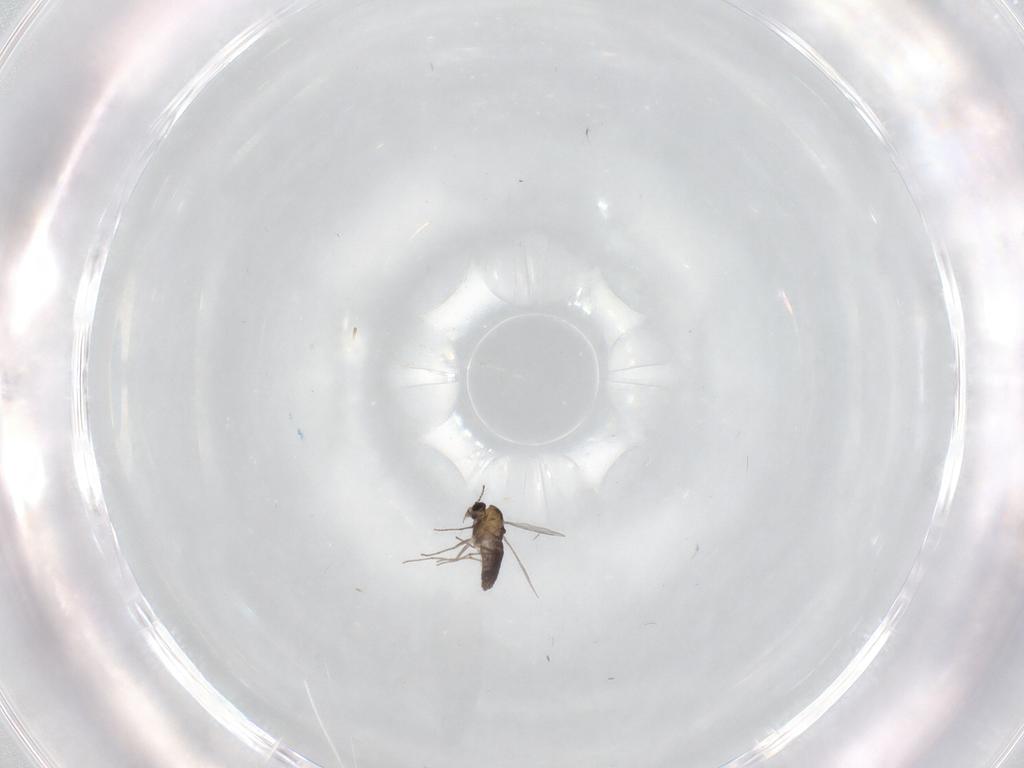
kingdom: Animalia
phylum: Arthropoda
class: Insecta
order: Diptera
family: Chironomidae
